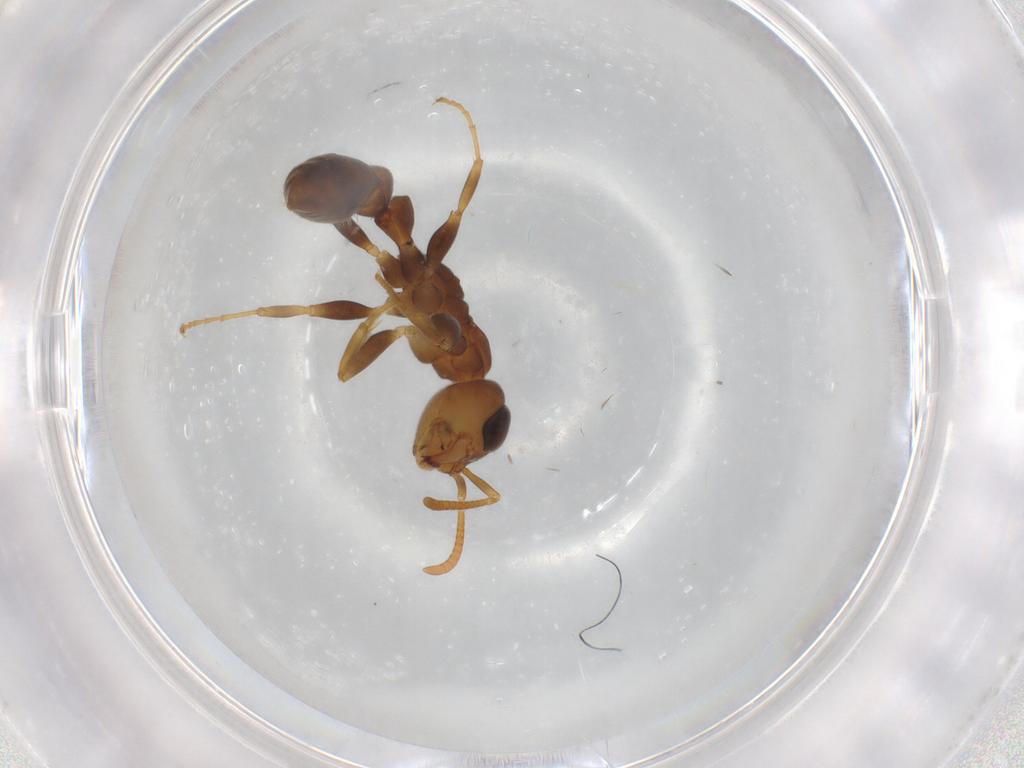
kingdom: Animalia
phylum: Arthropoda
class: Insecta
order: Hymenoptera
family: Formicidae
